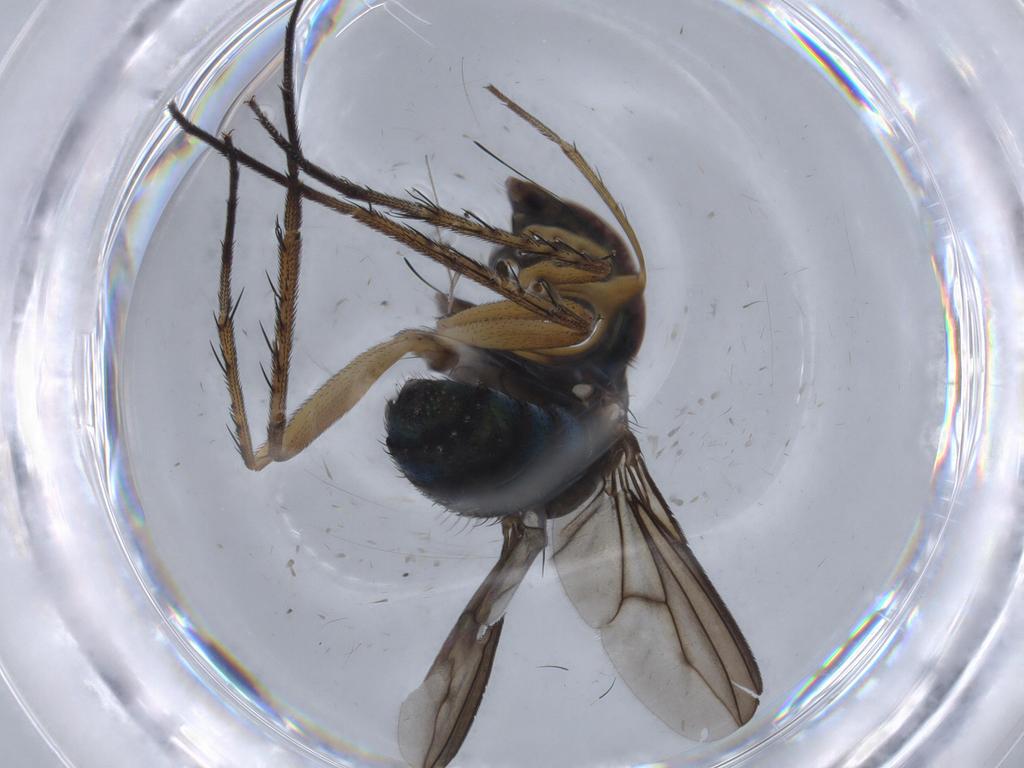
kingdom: Animalia
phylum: Arthropoda
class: Insecta
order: Diptera
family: Dolichopodidae
